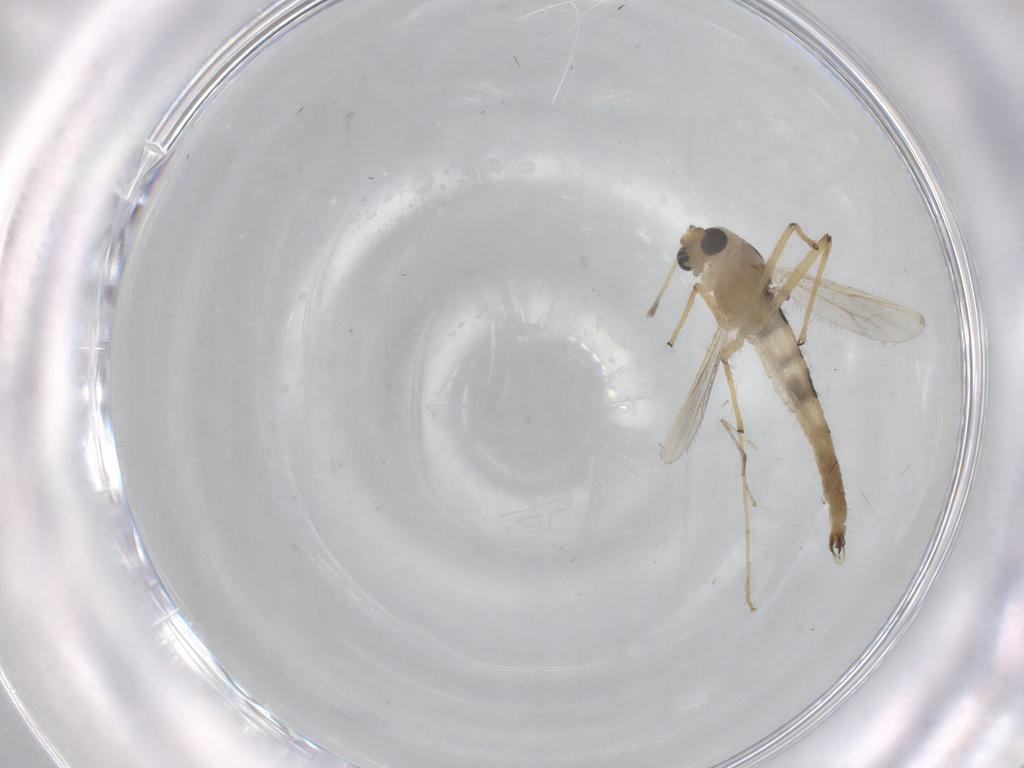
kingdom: Animalia
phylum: Arthropoda
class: Insecta
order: Diptera
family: Chironomidae
